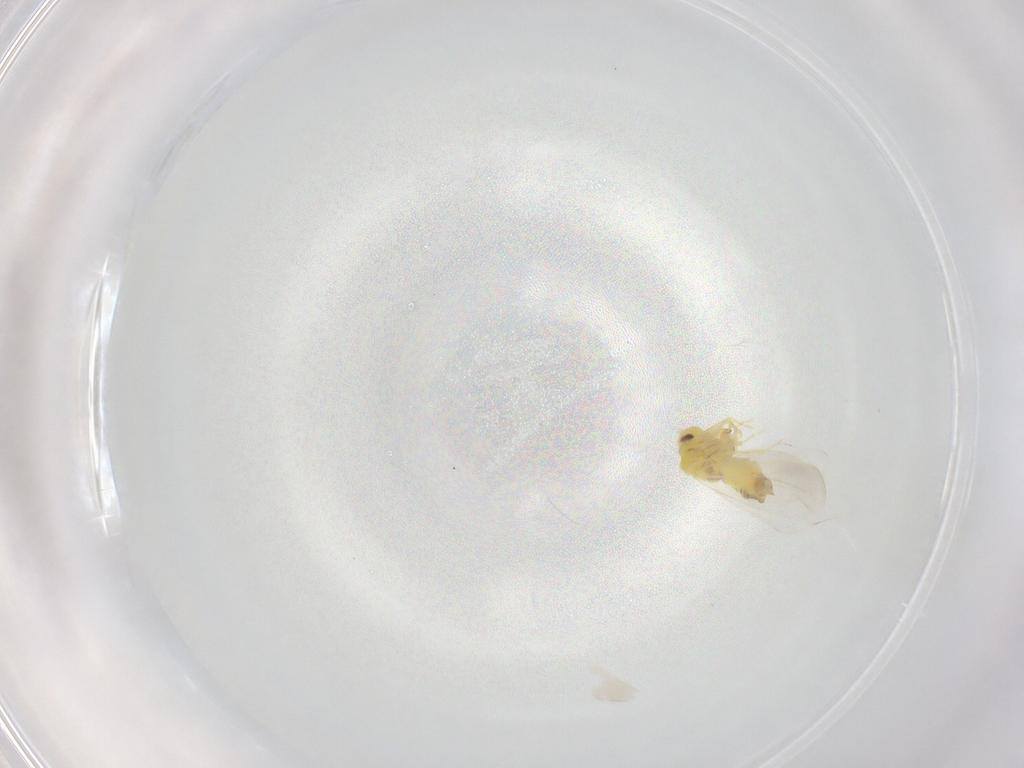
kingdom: Animalia
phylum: Arthropoda
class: Insecta
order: Hemiptera
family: Aleyrodidae
